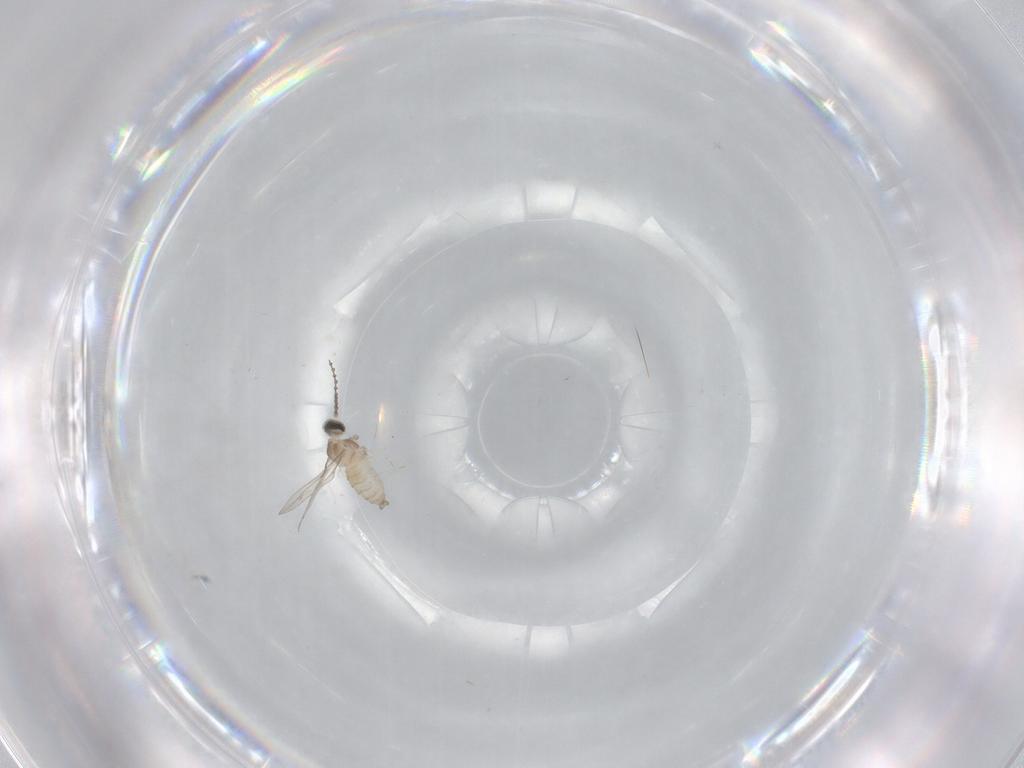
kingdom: Animalia
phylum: Arthropoda
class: Insecta
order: Diptera
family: Cecidomyiidae
